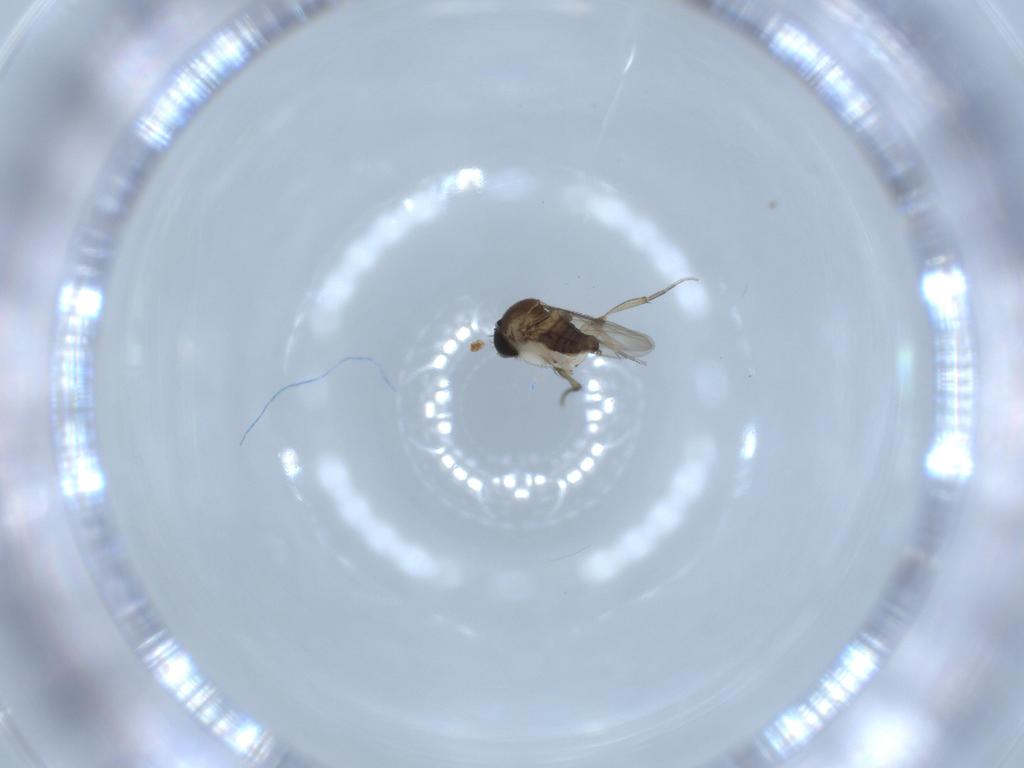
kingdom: Animalia
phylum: Arthropoda
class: Insecta
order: Diptera
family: Phoridae
